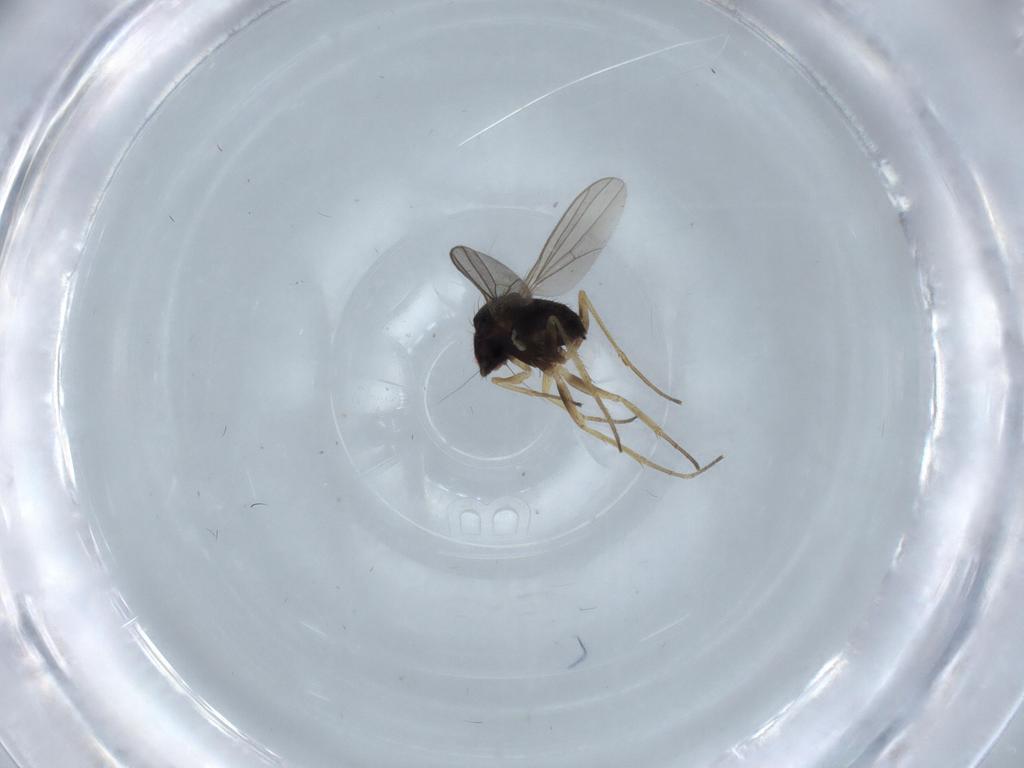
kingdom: Animalia
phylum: Arthropoda
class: Insecta
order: Diptera
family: Dolichopodidae
